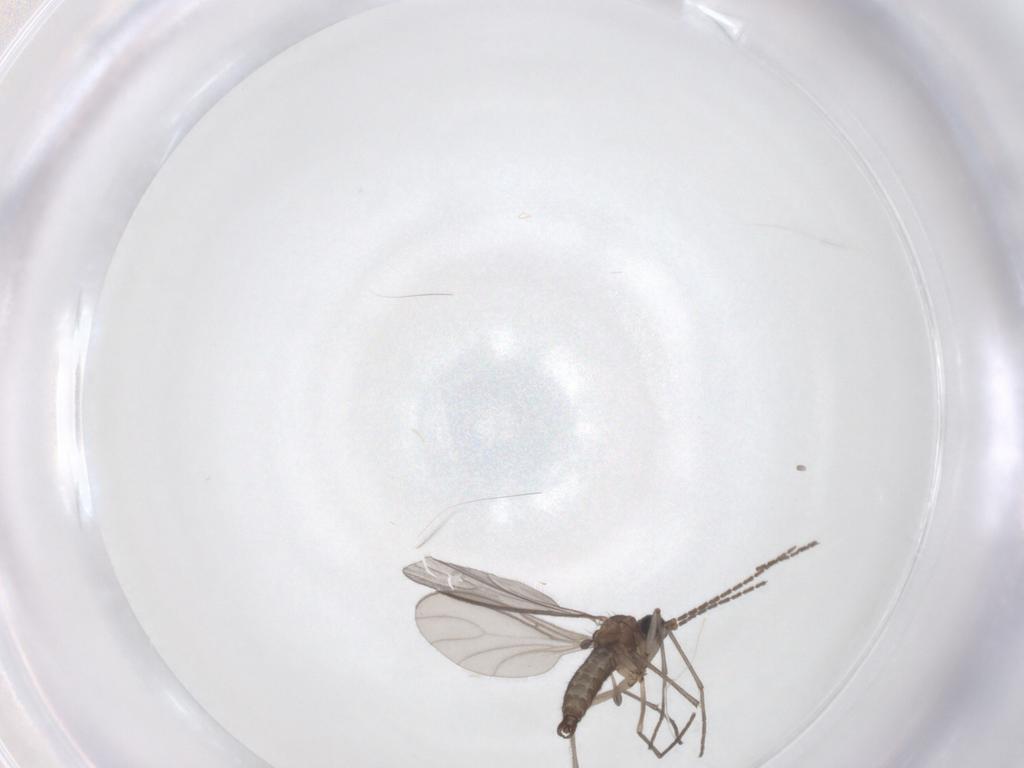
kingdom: Animalia
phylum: Arthropoda
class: Insecta
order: Diptera
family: Sciaridae
